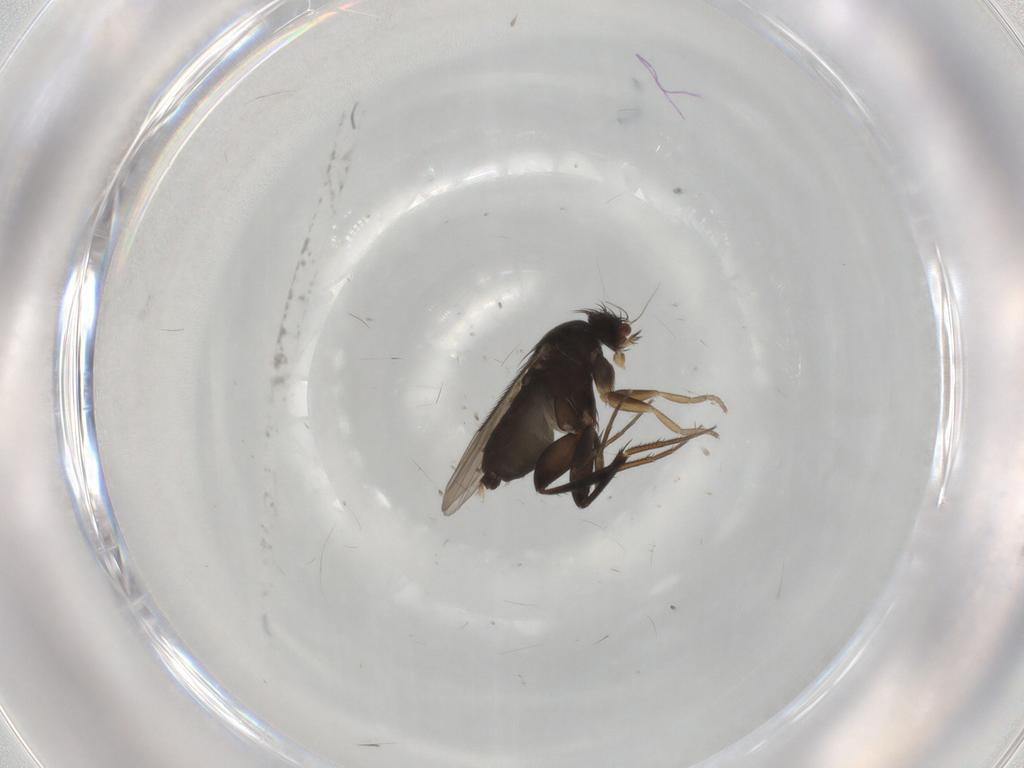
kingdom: Animalia
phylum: Arthropoda
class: Insecta
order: Diptera
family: Phoridae
